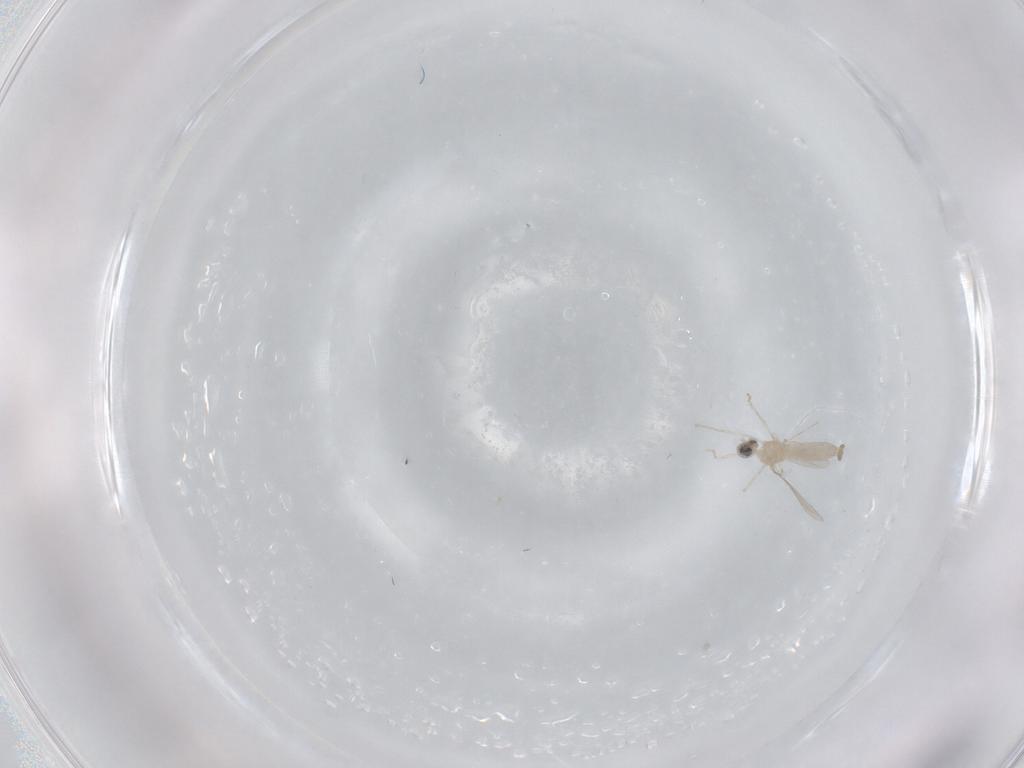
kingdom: Animalia
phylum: Arthropoda
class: Insecta
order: Diptera
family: Cecidomyiidae
